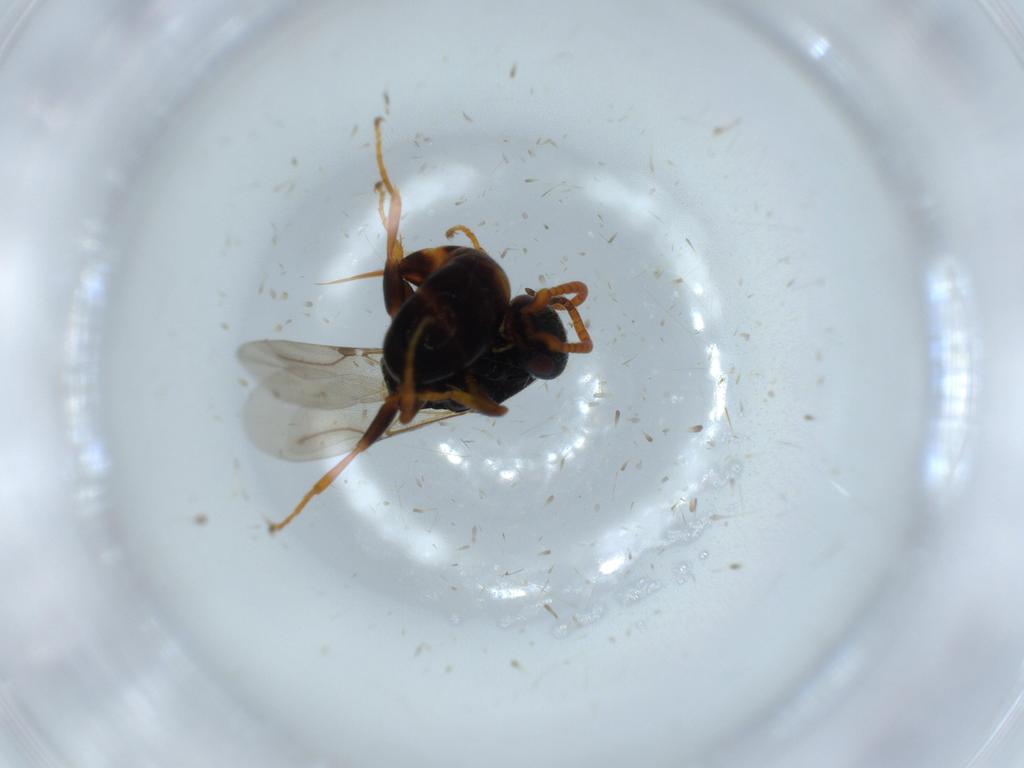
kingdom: Animalia
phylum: Arthropoda
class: Insecta
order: Hymenoptera
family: Bethylidae
